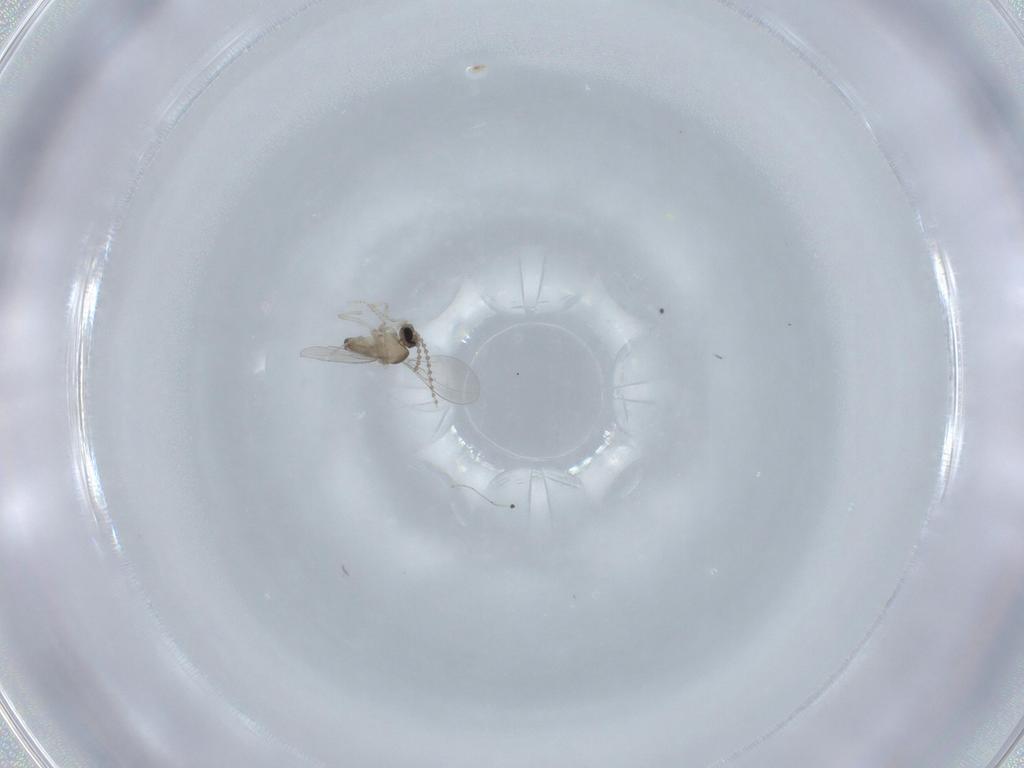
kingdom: Animalia
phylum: Arthropoda
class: Insecta
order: Diptera
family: Cecidomyiidae
